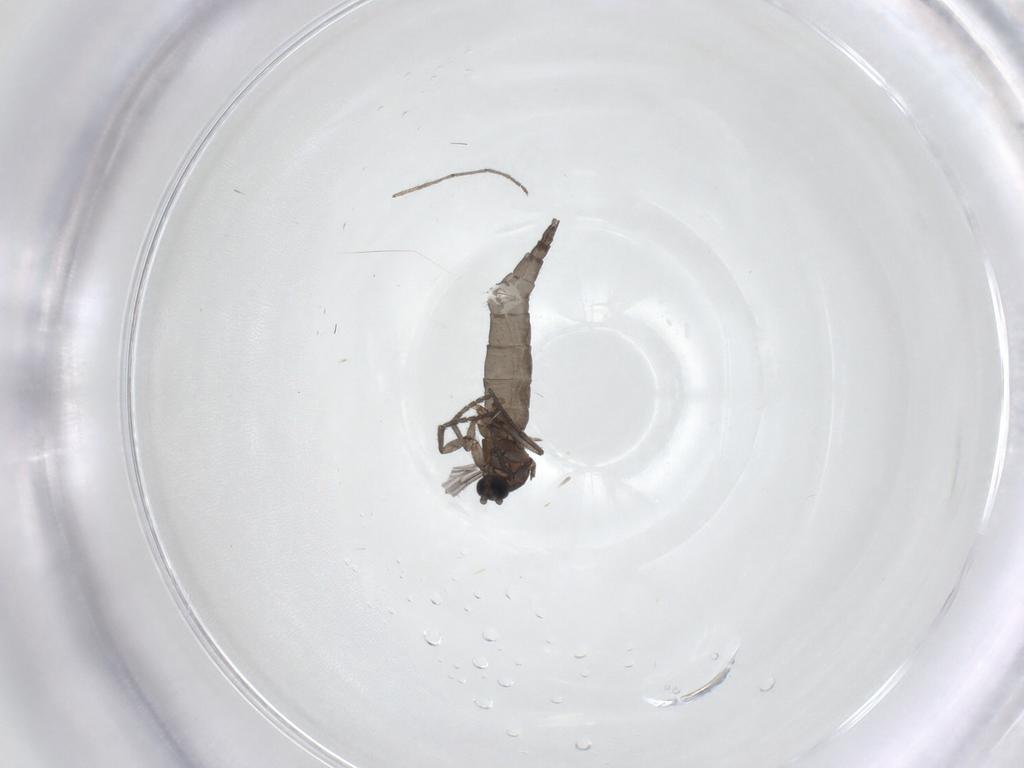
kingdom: Animalia
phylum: Arthropoda
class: Insecta
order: Diptera
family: Sciaridae
